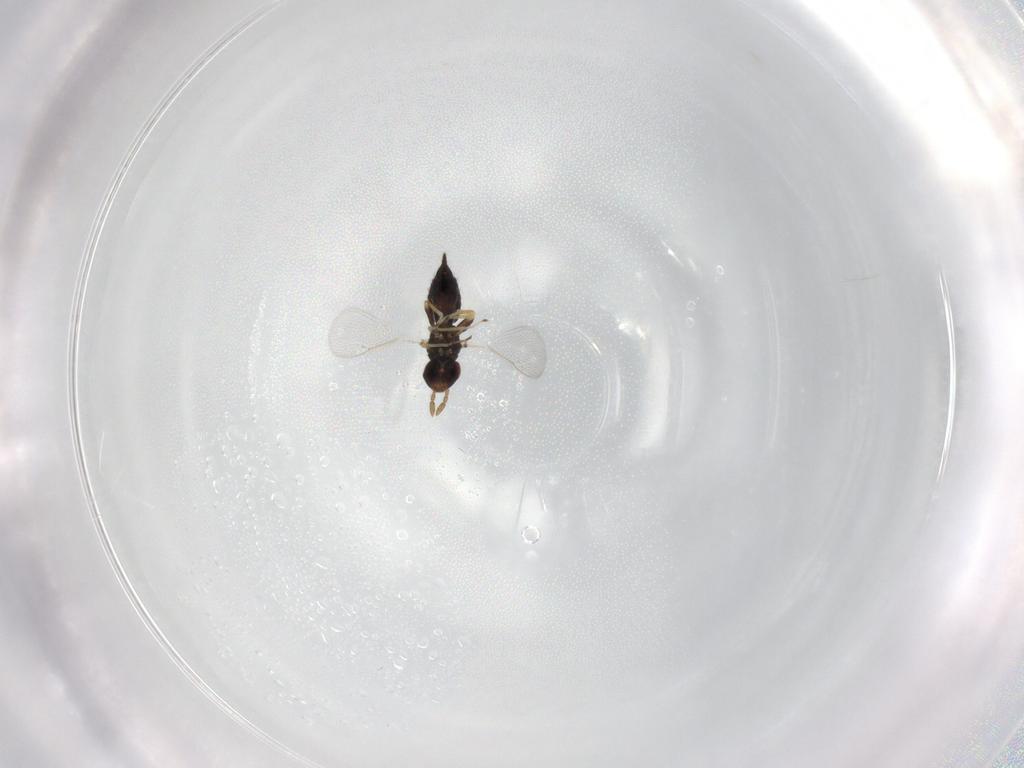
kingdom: Animalia
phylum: Arthropoda
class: Insecta
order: Hymenoptera
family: Eulophidae
